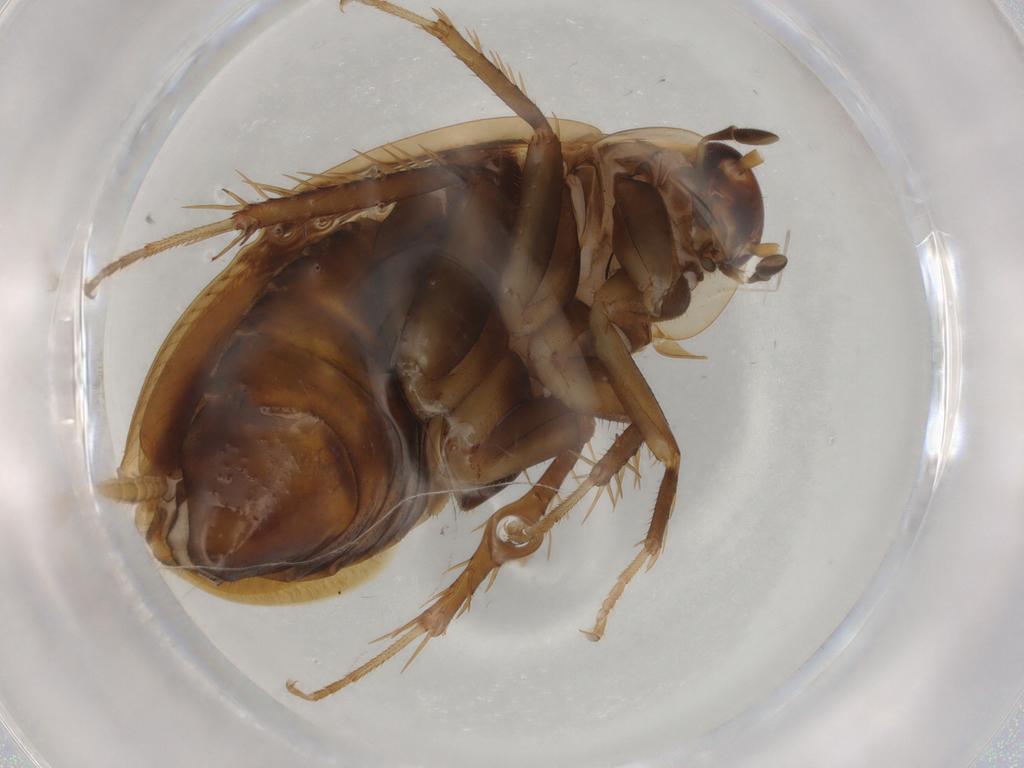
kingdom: Animalia
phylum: Arthropoda
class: Insecta
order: Blattodea
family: Ectobiidae
